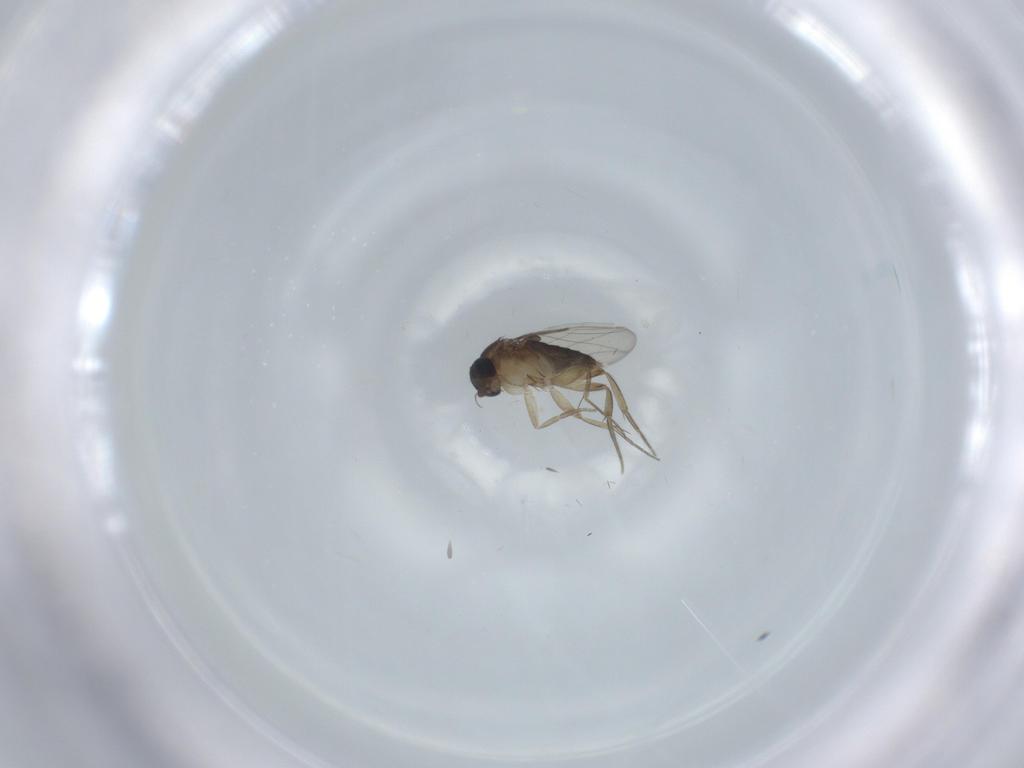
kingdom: Animalia
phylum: Arthropoda
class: Insecta
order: Diptera
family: Phoridae
